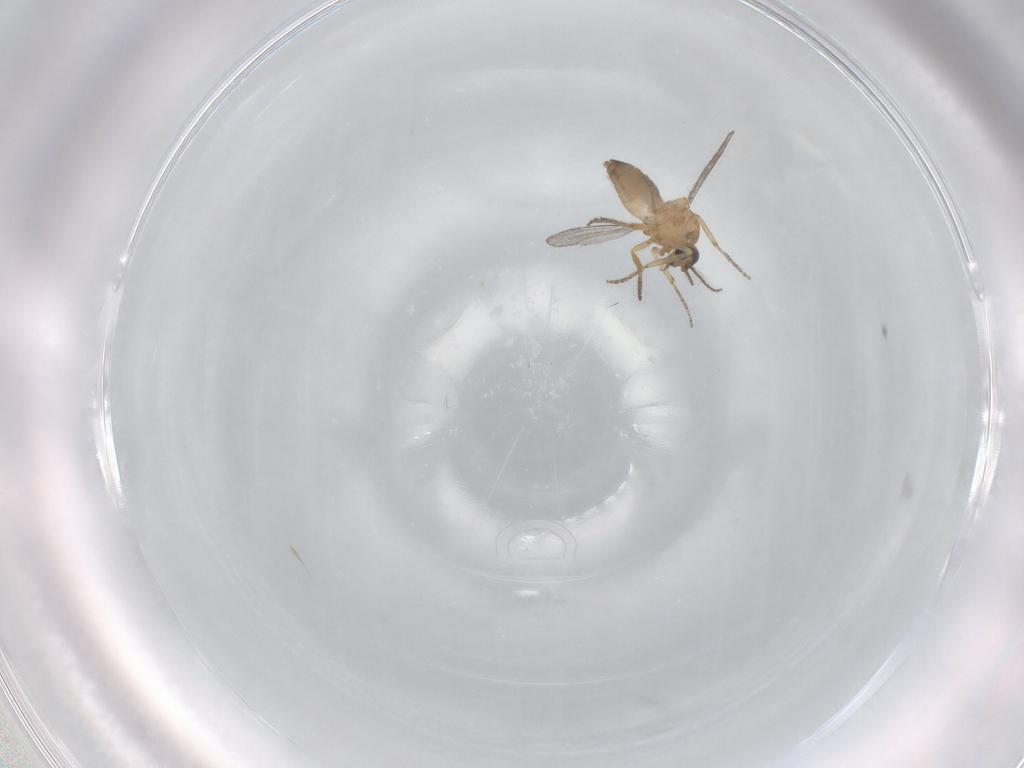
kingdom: Animalia
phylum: Arthropoda
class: Insecta
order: Diptera
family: Ceratopogonidae
